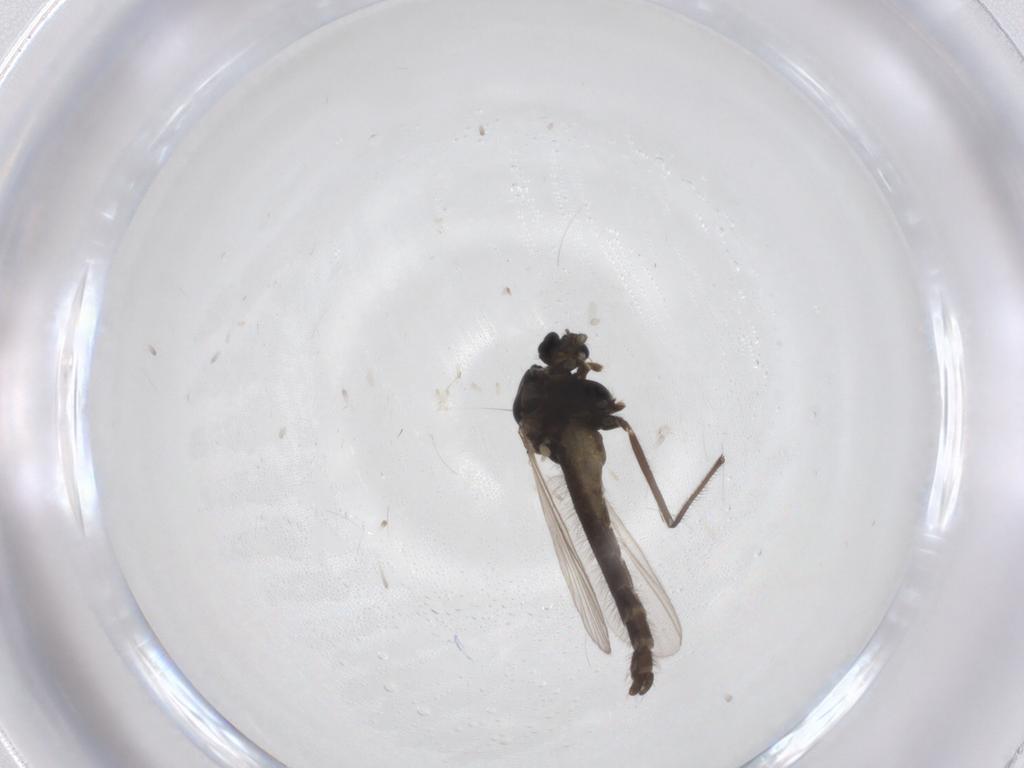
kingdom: Animalia
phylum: Arthropoda
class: Insecta
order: Diptera
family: Chironomidae
